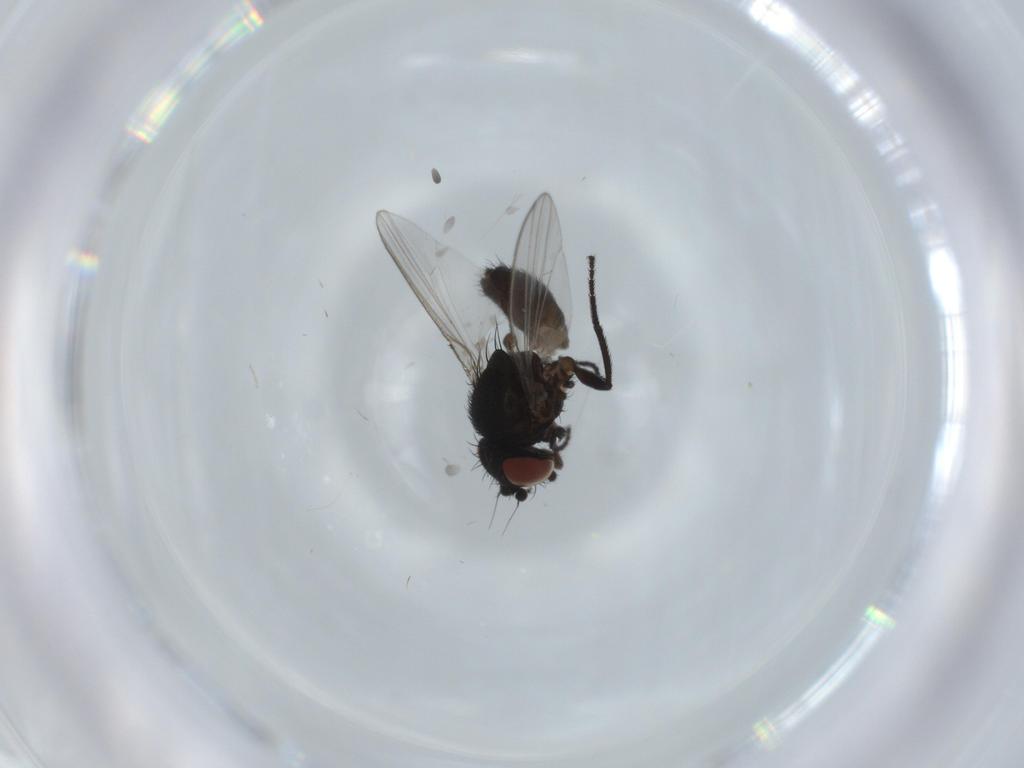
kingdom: Animalia
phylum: Arthropoda
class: Insecta
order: Diptera
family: Milichiidae
